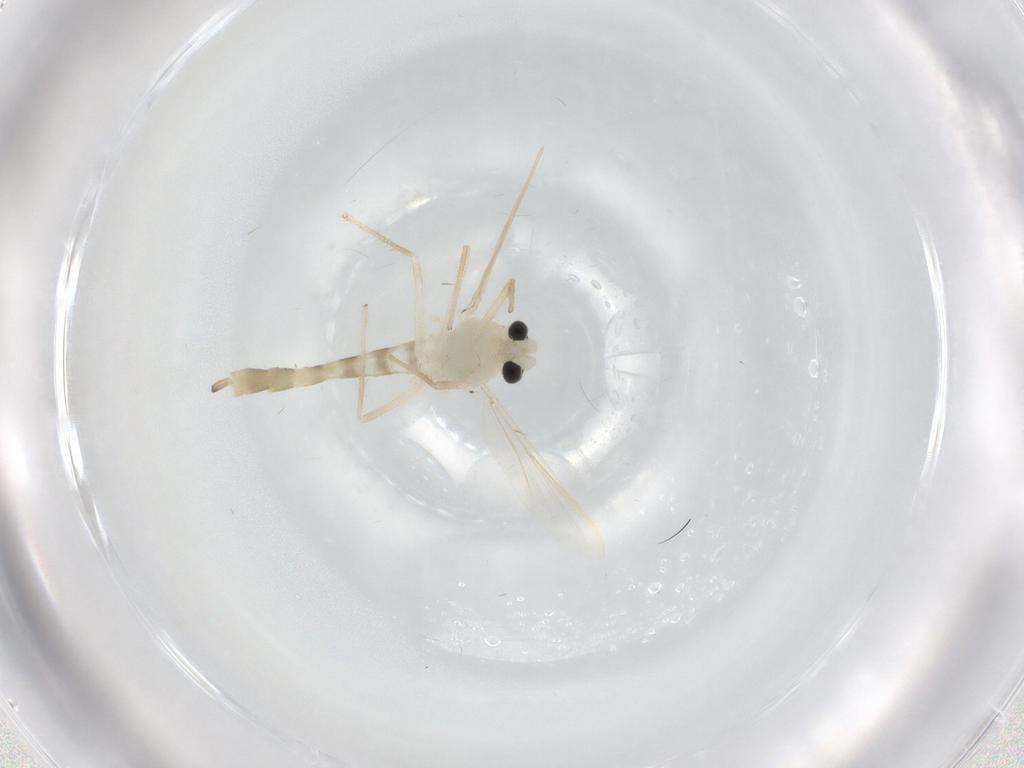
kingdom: Animalia
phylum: Arthropoda
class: Insecta
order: Diptera
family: Chironomidae
